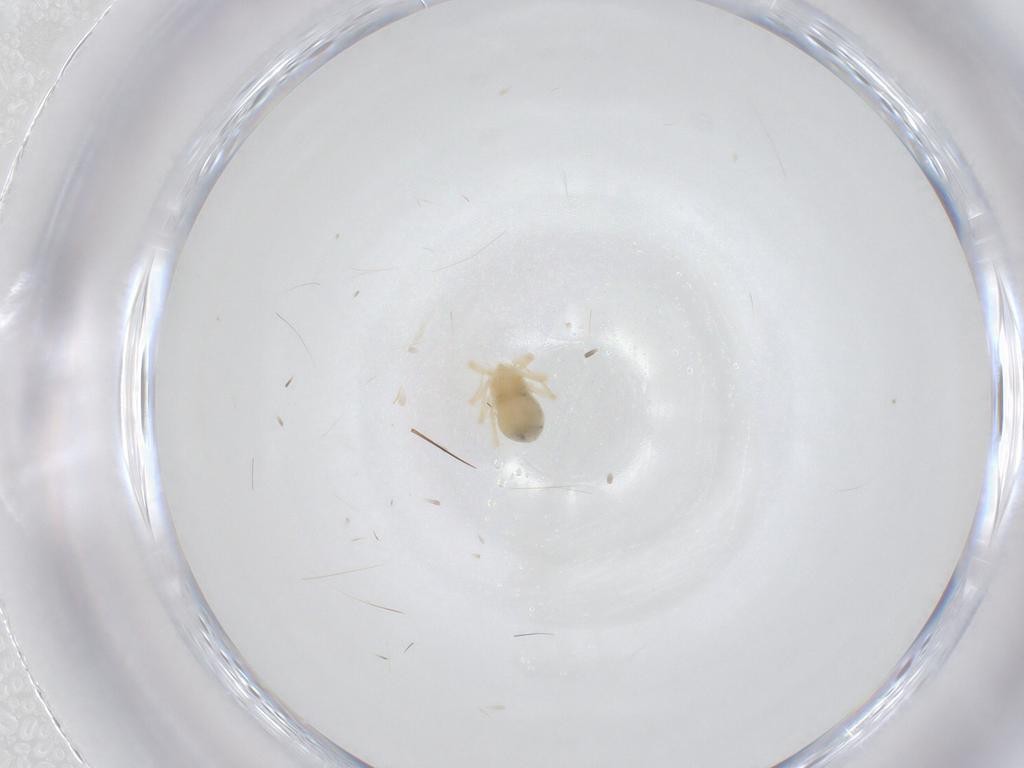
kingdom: Animalia
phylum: Arthropoda
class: Arachnida
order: Trombidiformes
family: Anystidae
